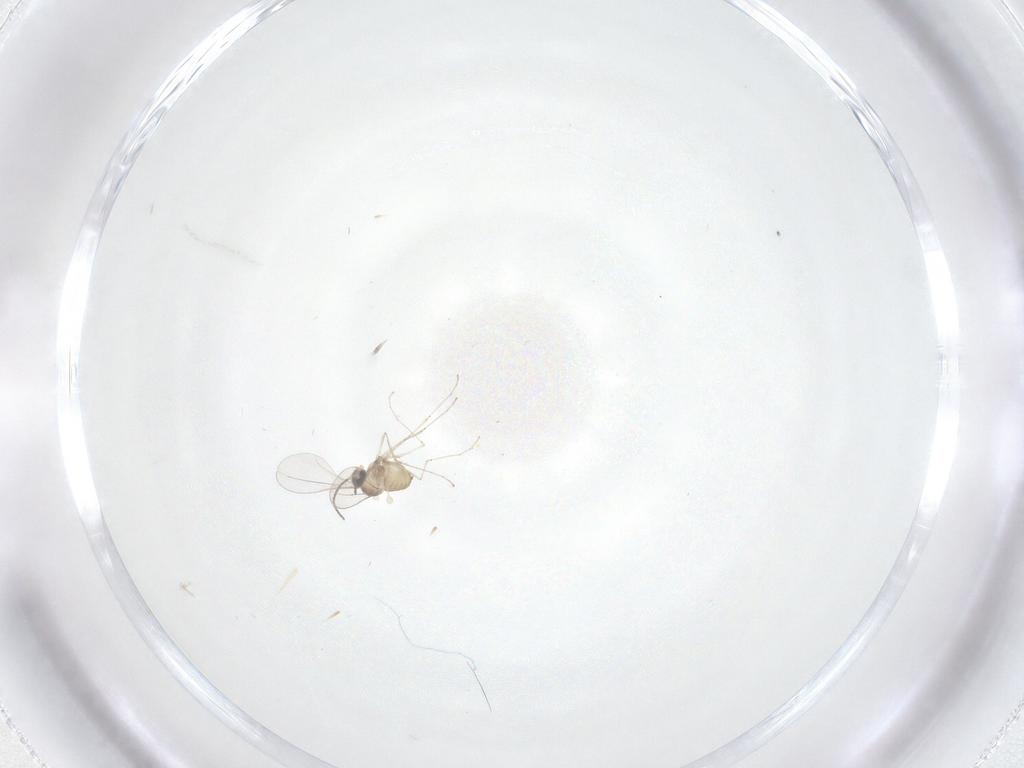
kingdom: Animalia
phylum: Arthropoda
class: Insecta
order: Diptera
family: Cecidomyiidae
